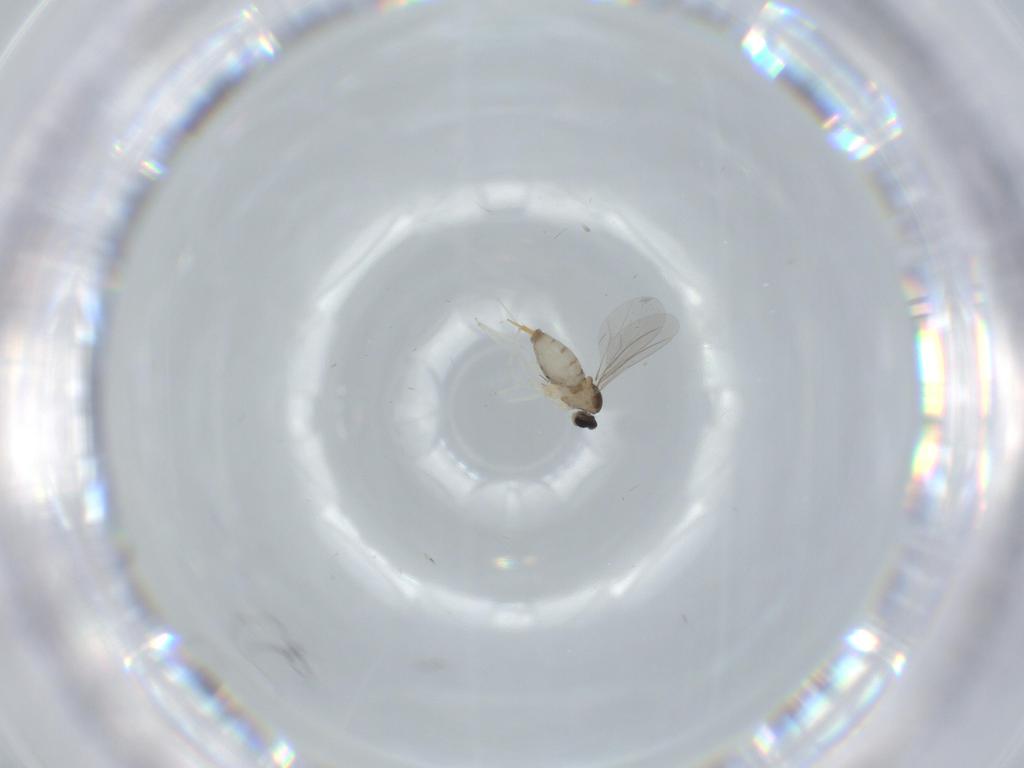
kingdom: Animalia
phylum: Arthropoda
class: Insecta
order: Diptera
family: Cecidomyiidae
